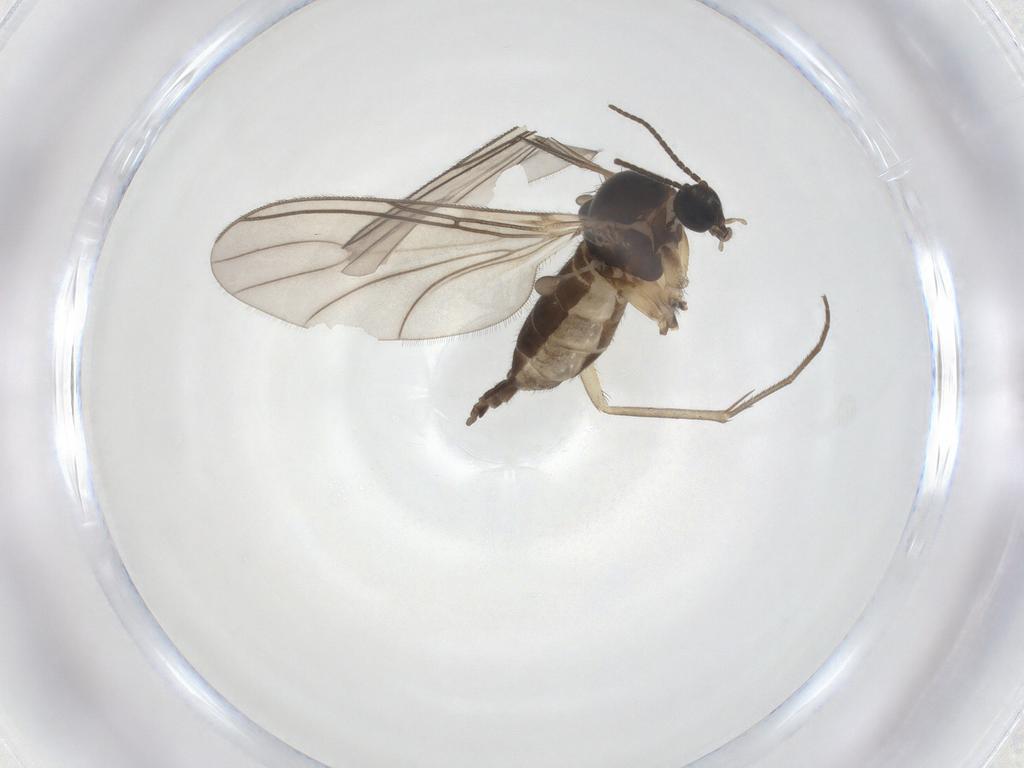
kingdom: Animalia
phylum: Arthropoda
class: Insecta
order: Diptera
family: Sciaridae
